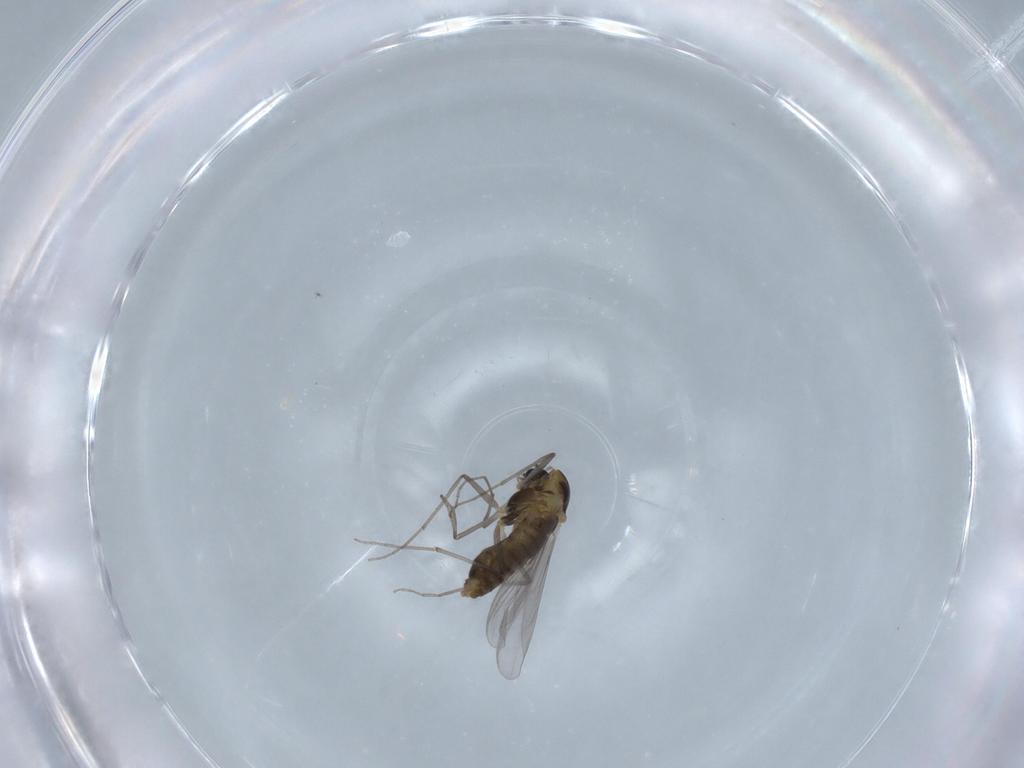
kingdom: Animalia
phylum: Arthropoda
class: Insecta
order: Diptera
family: Chironomidae
